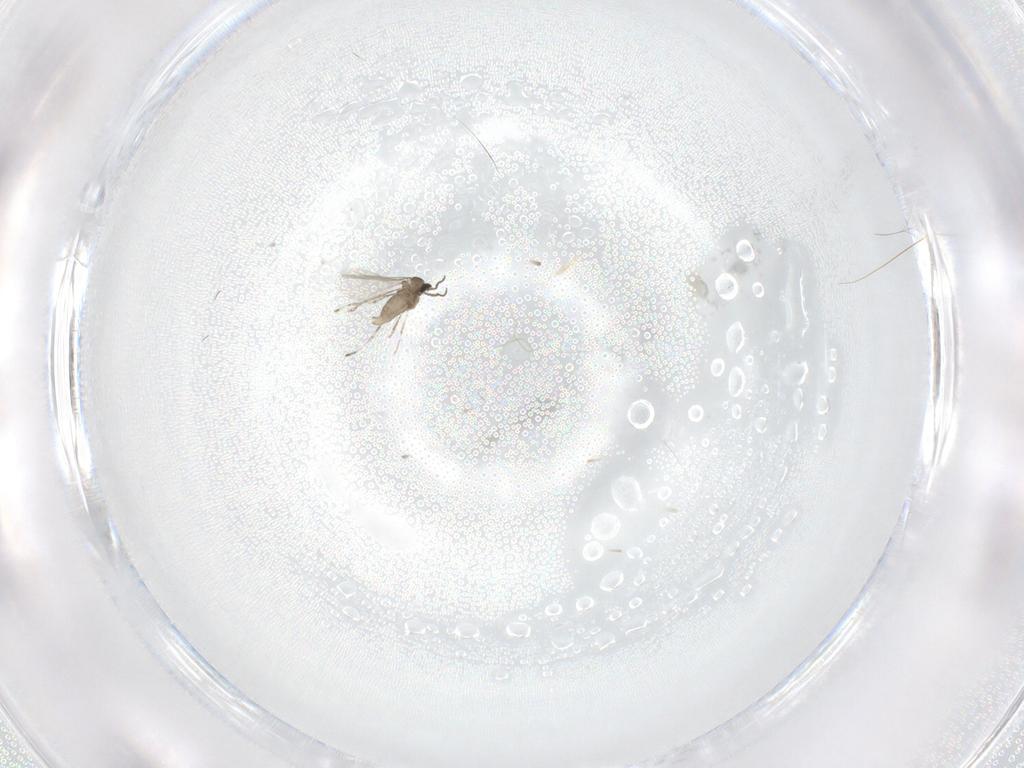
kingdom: Animalia
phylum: Arthropoda
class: Insecta
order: Diptera
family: Cecidomyiidae
